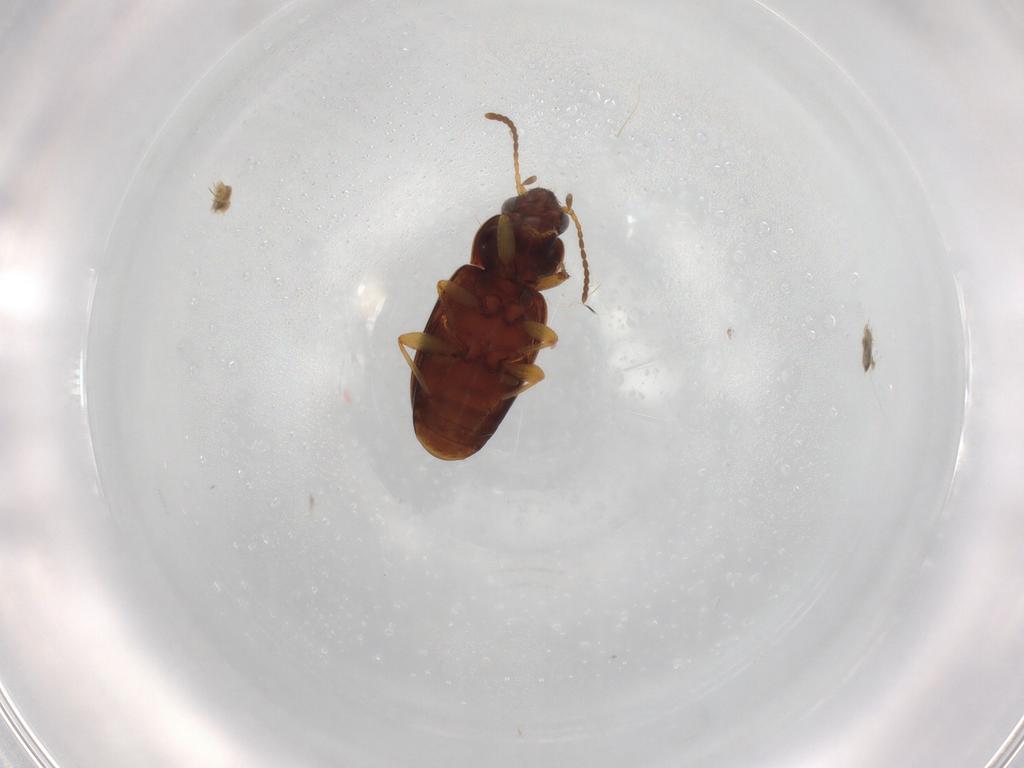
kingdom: Animalia
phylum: Arthropoda
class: Insecta
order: Coleoptera
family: Carabidae
